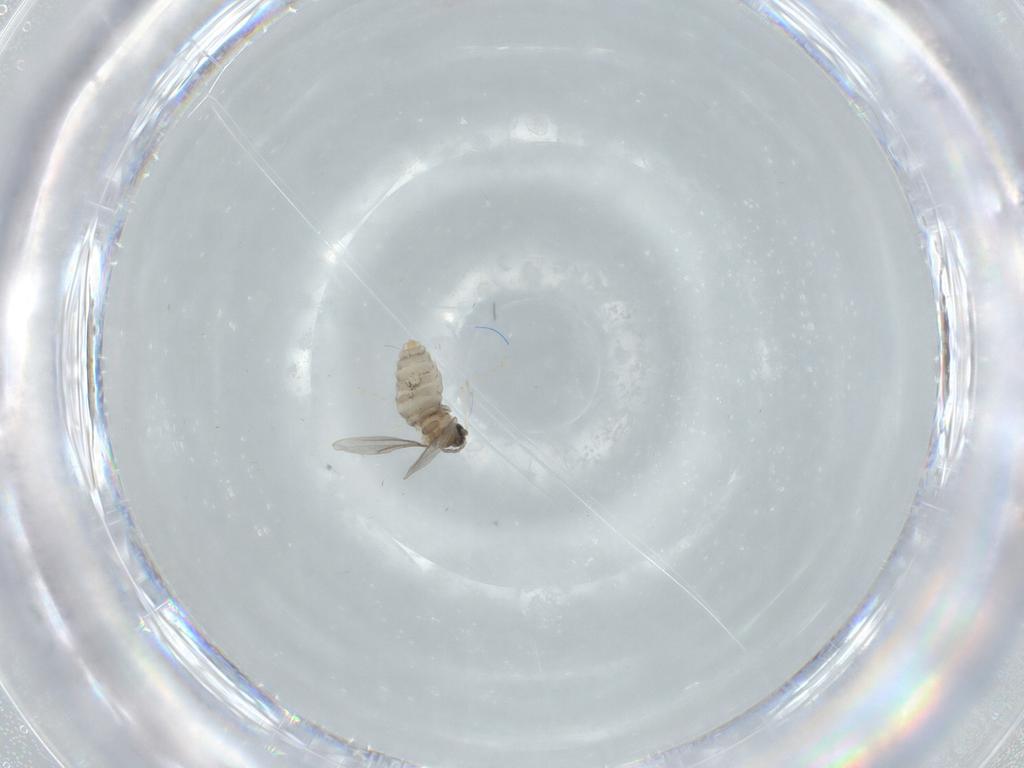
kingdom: Animalia
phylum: Arthropoda
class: Insecta
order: Diptera
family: Cecidomyiidae
